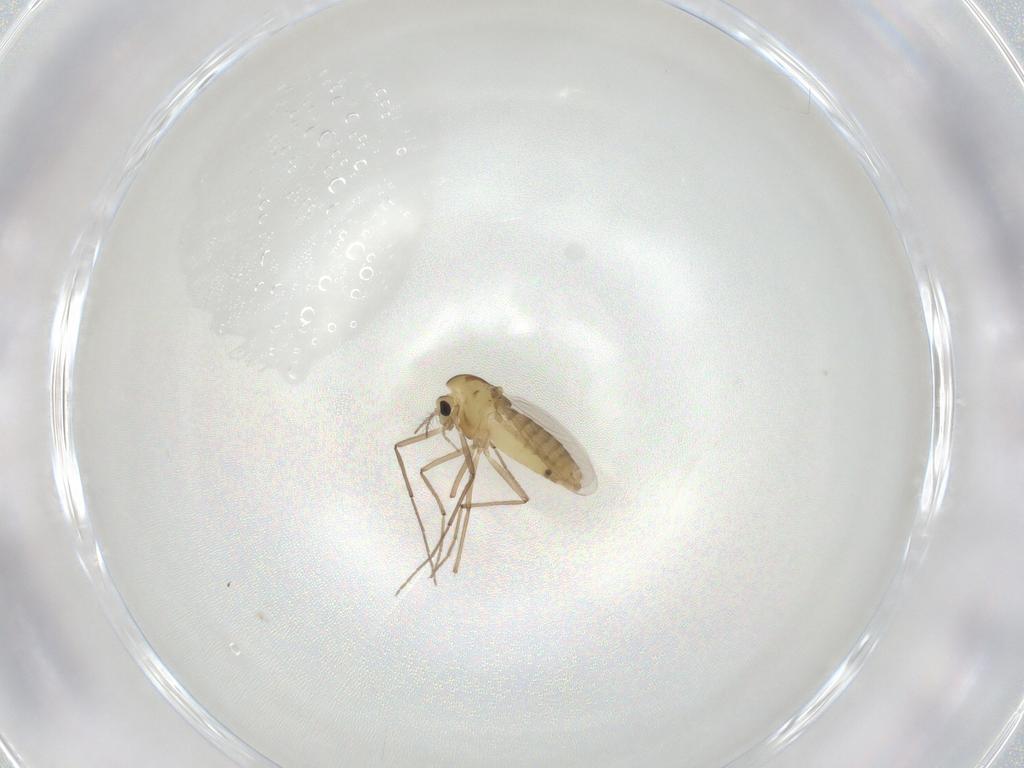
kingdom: Animalia
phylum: Arthropoda
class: Insecta
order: Diptera
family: Chironomidae
